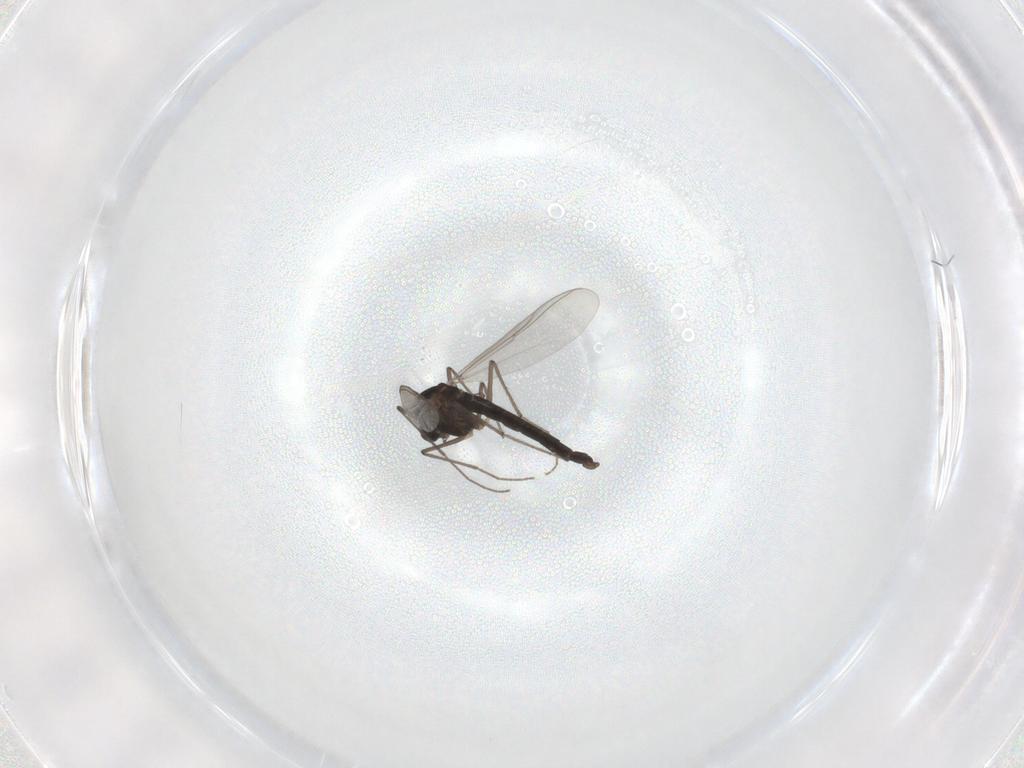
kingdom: Animalia
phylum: Arthropoda
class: Insecta
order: Diptera
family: Chironomidae
